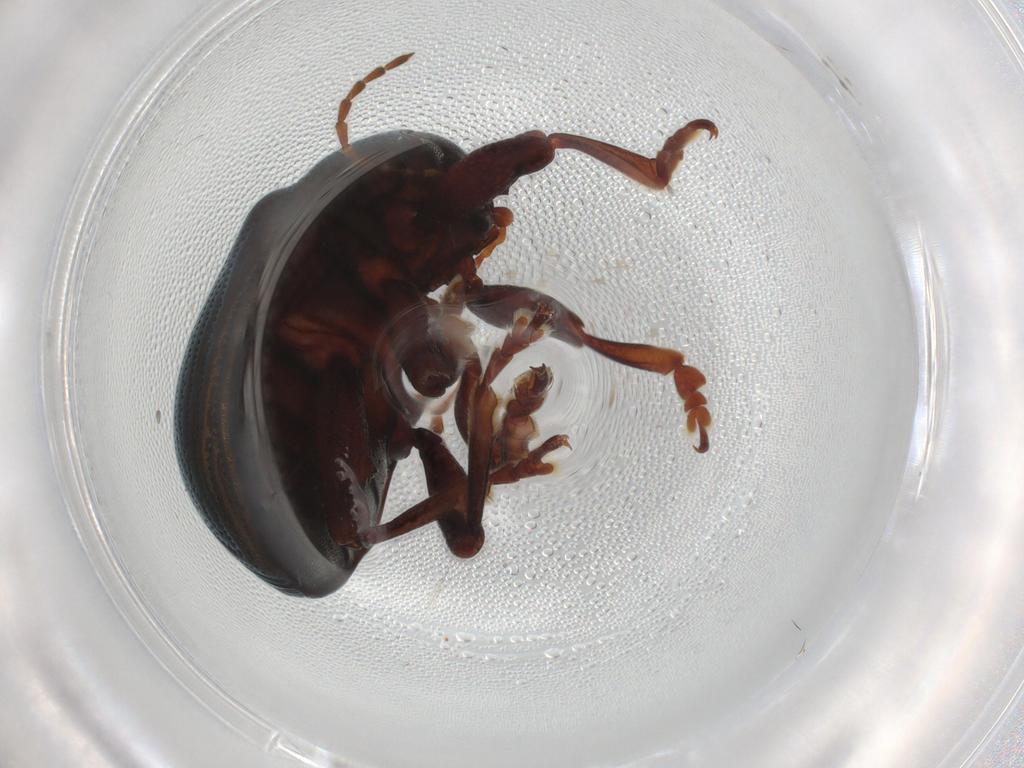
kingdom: Animalia
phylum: Arthropoda
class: Insecta
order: Coleoptera
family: Chrysomelidae
